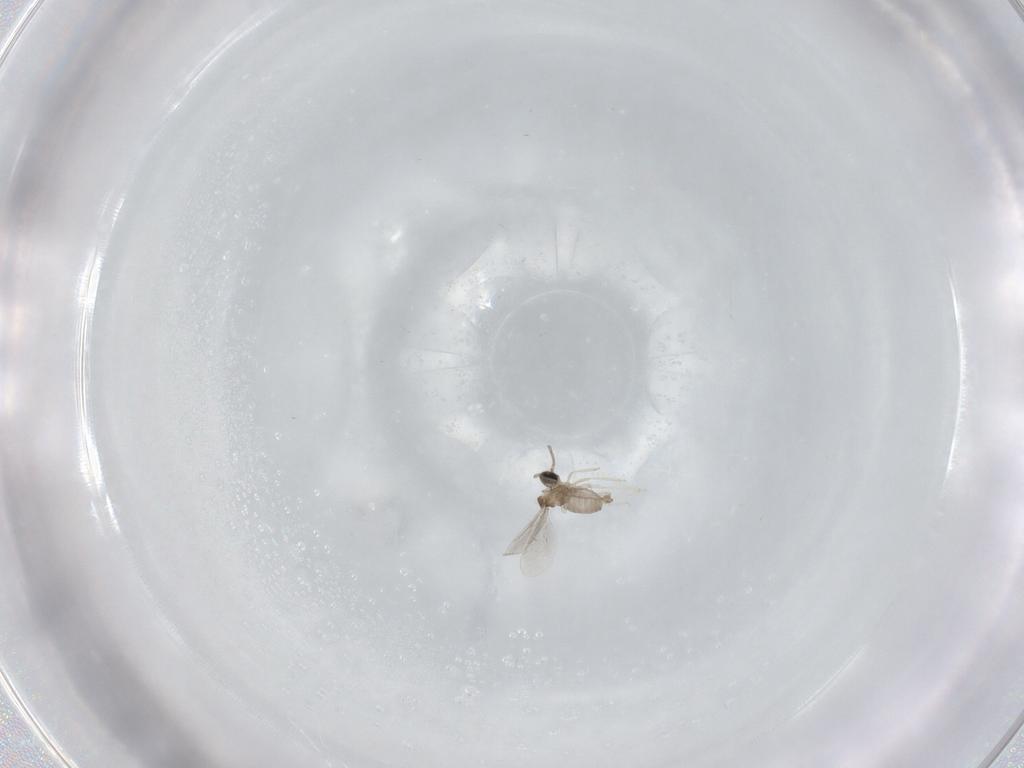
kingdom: Animalia
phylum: Arthropoda
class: Insecta
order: Diptera
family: Cecidomyiidae
